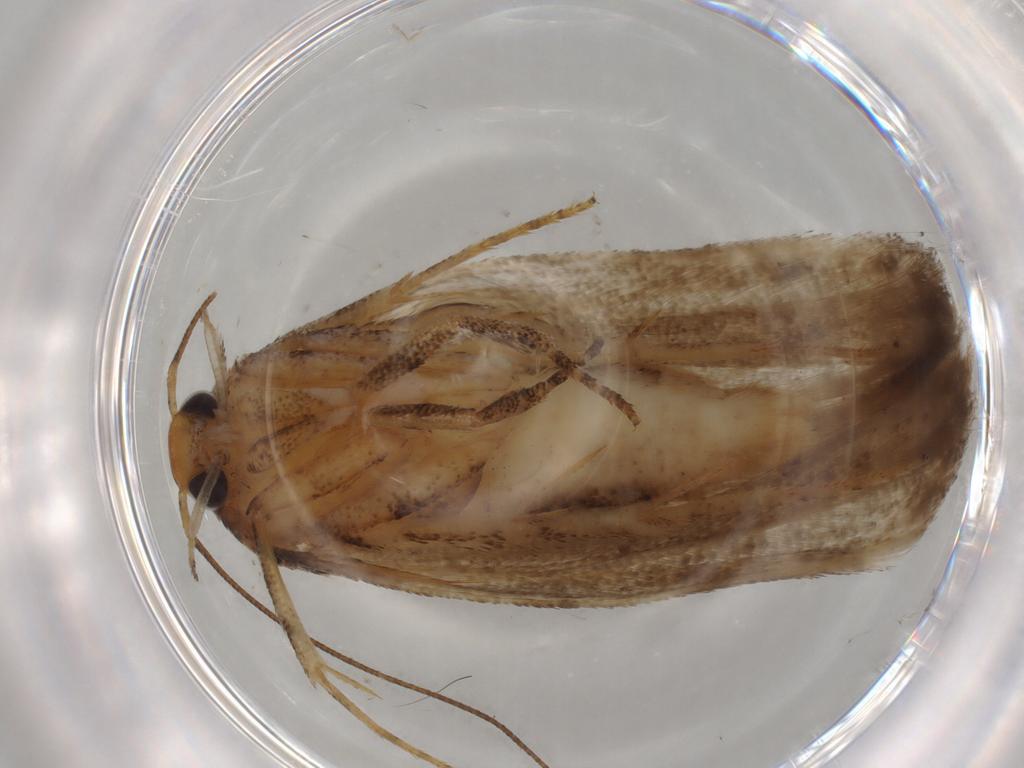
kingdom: Animalia
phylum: Arthropoda
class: Insecta
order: Lepidoptera
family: Gelechiidae
